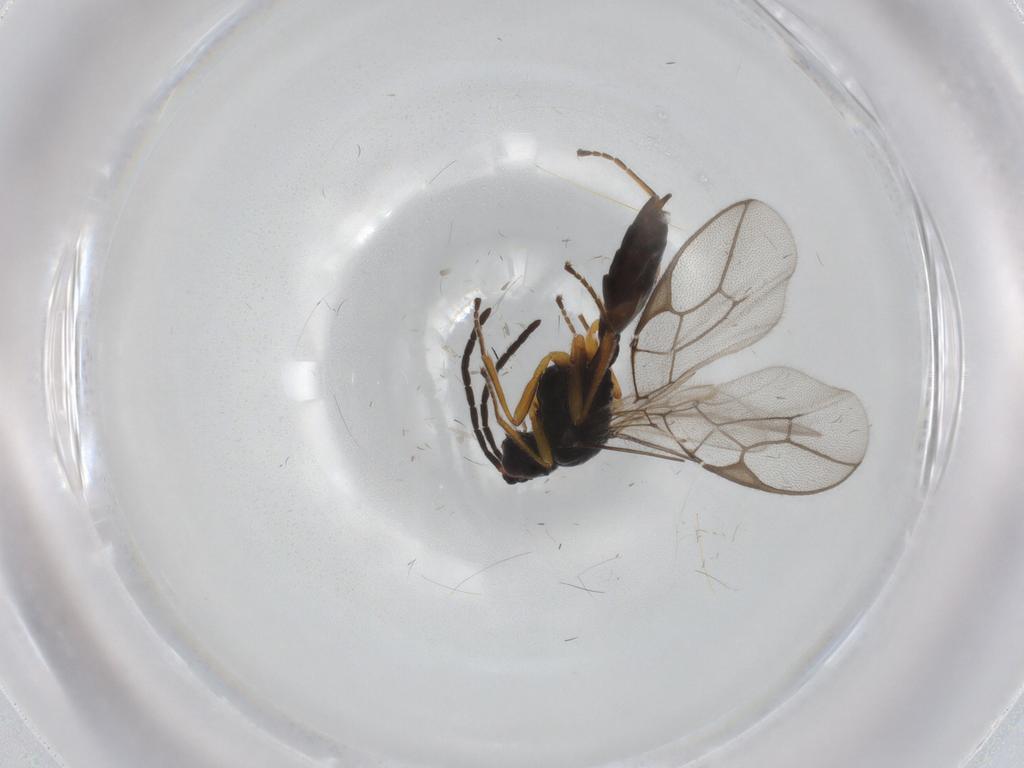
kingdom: Animalia
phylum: Arthropoda
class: Insecta
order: Hymenoptera
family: Braconidae
